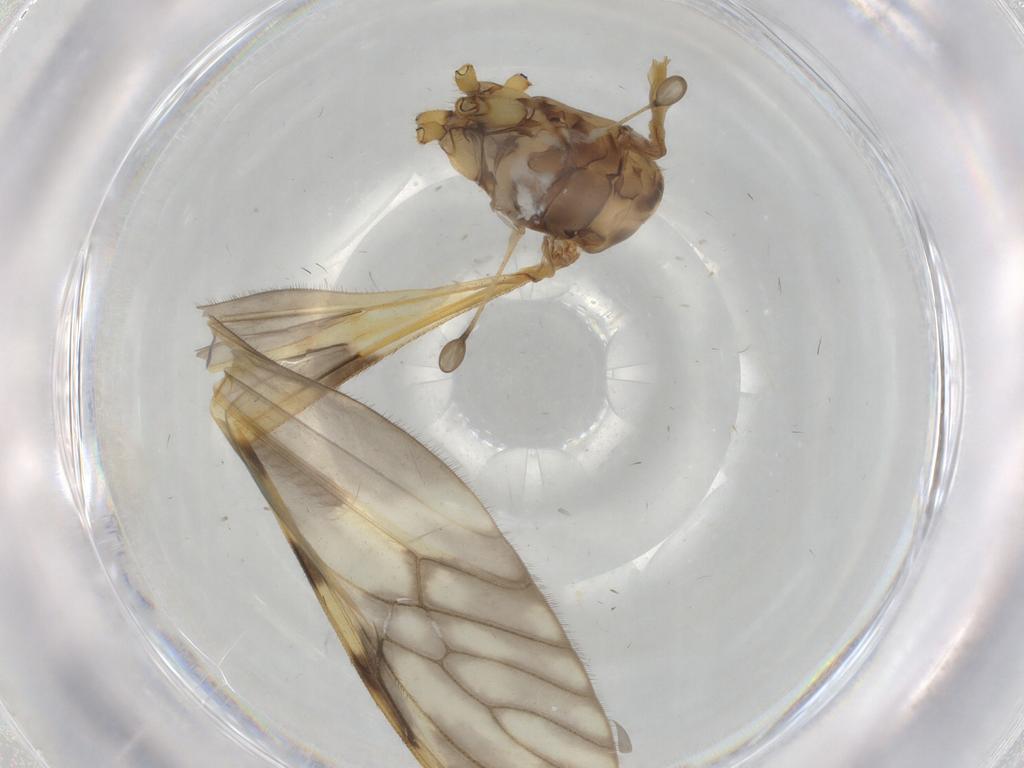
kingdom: Animalia
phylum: Arthropoda
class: Insecta
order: Diptera
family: Tipulidae
